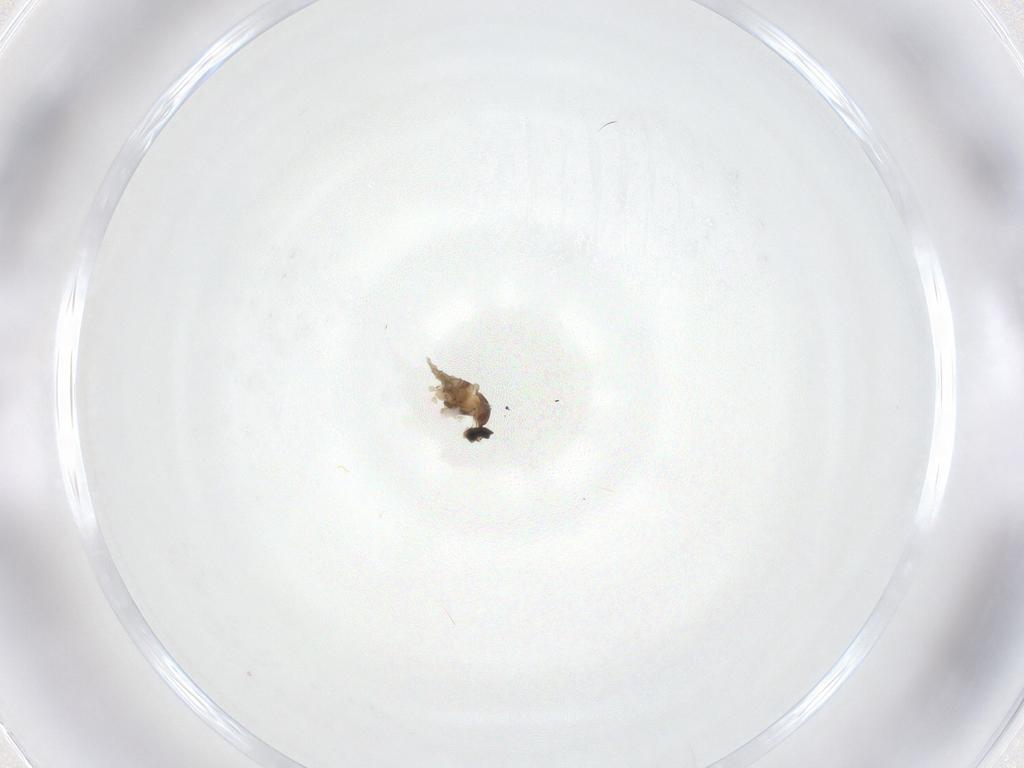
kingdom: Animalia
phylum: Arthropoda
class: Insecta
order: Diptera
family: Cecidomyiidae
